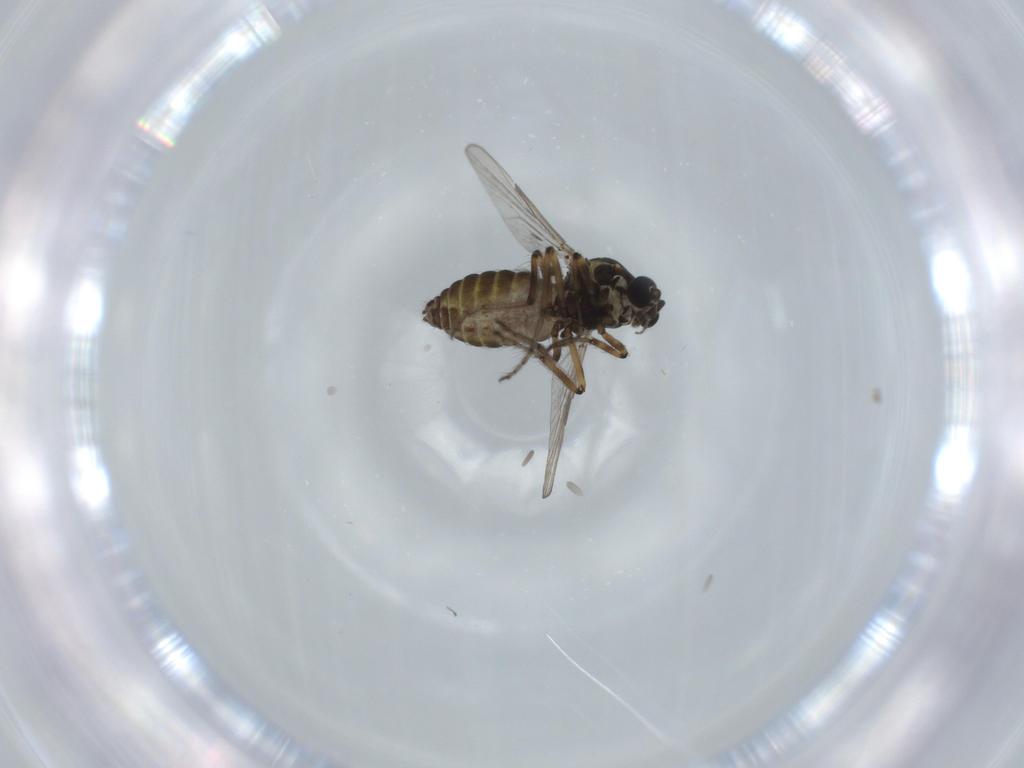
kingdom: Animalia
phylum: Arthropoda
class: Insecta
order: Diptera
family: Ceratopogonidae
